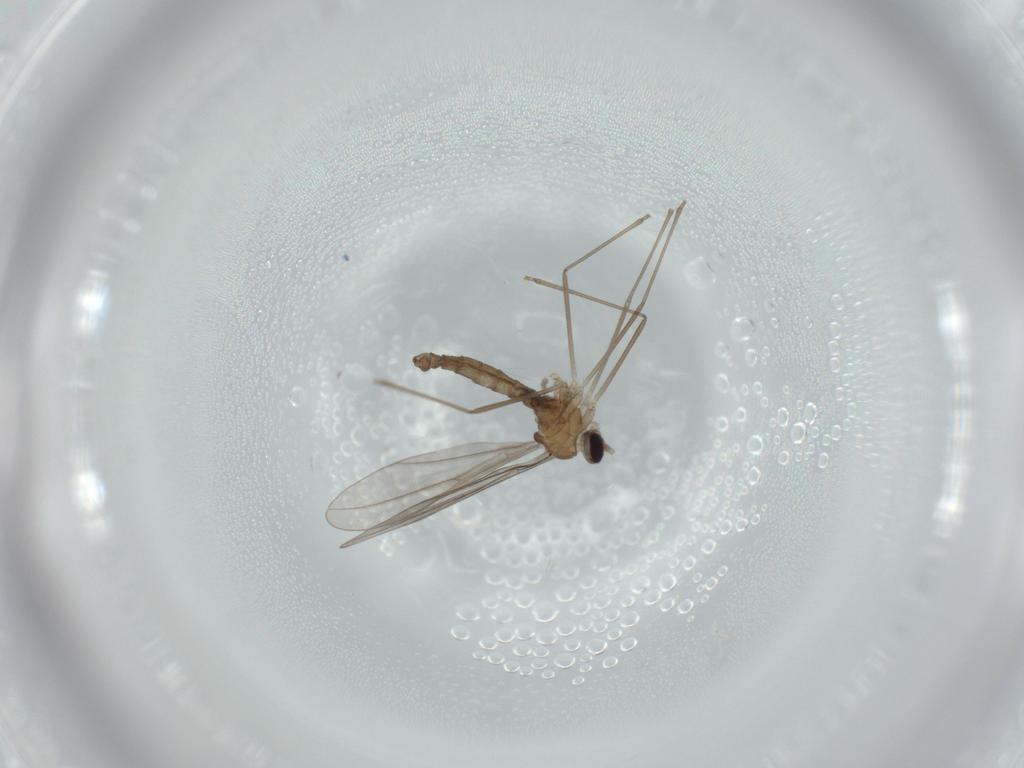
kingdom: Animalia
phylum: Arthropoda
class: Insecta
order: Diptera
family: Cecidomyiidae
